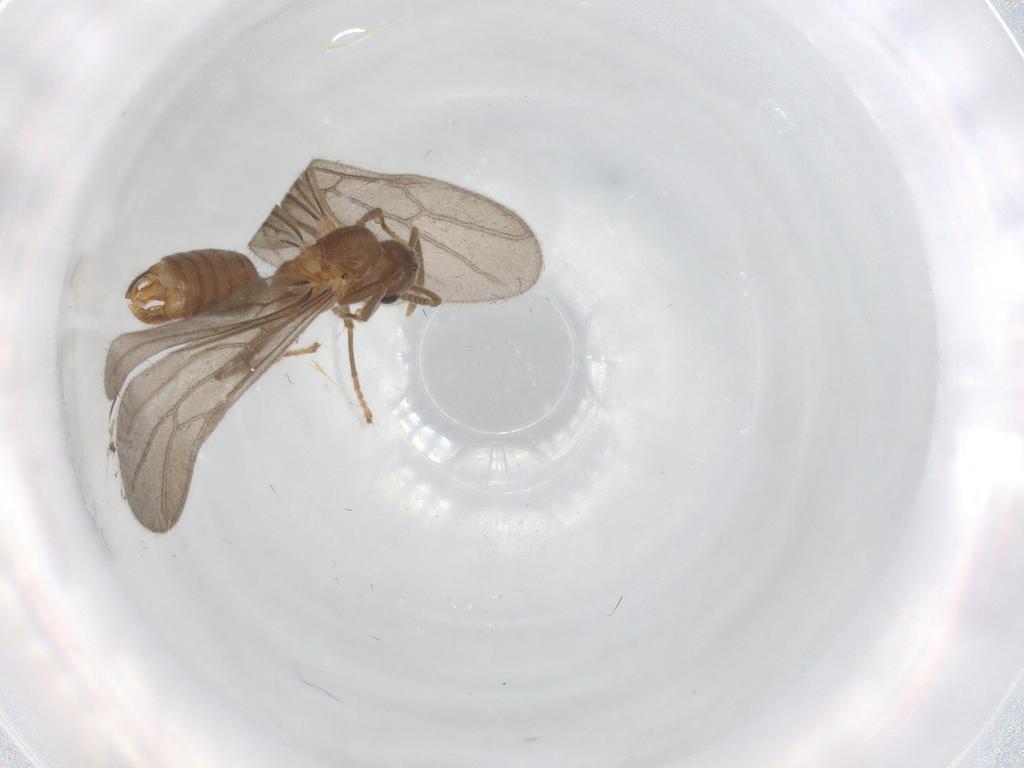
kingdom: Animalia
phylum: Arthropoda
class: Insecta
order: Hymenoptera
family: Formicidae
